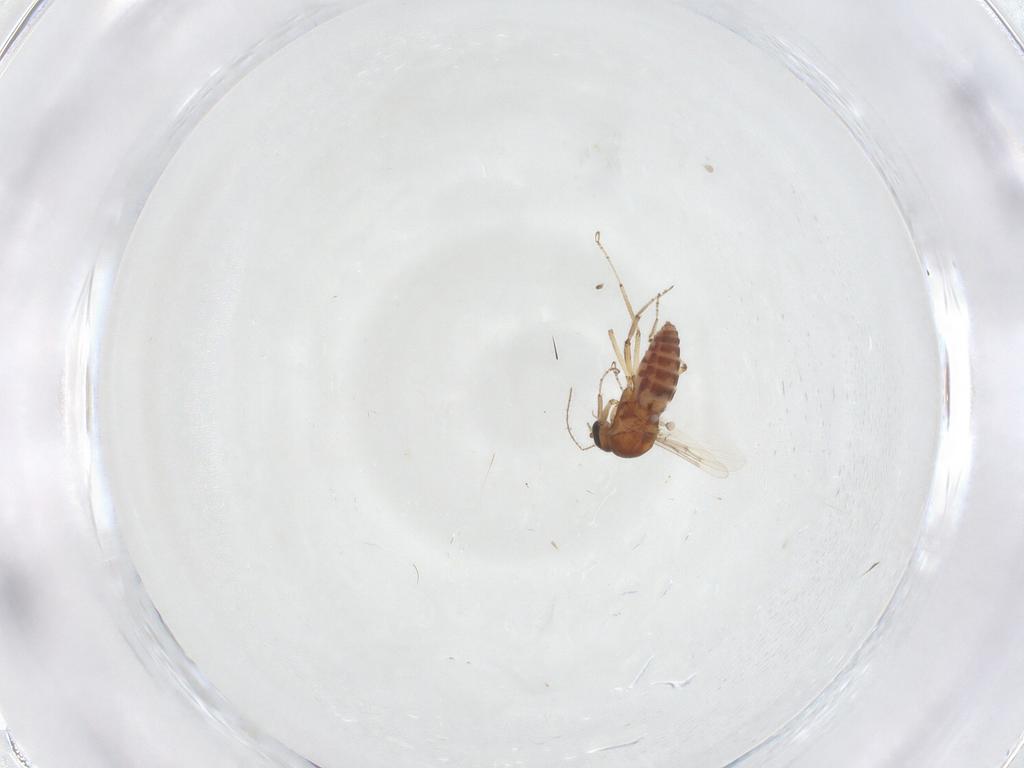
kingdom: Animalia
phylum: Arthropoda
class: Insecta
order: Diptera
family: Ceratopogonidae
